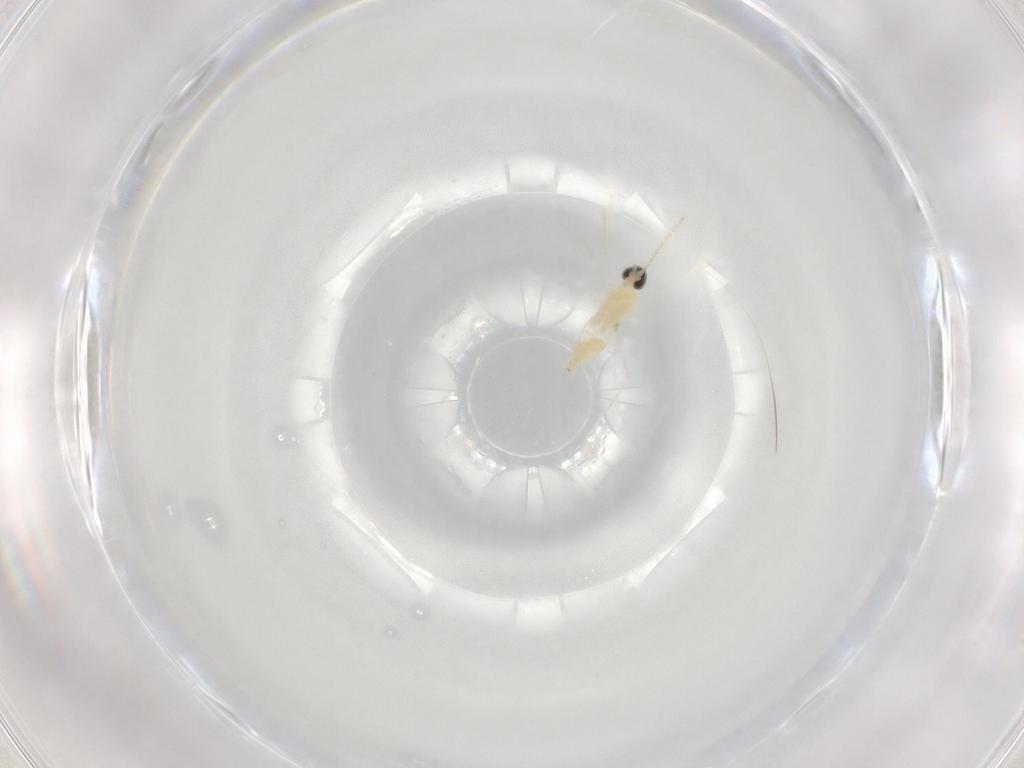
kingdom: Animalia
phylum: Arthropoda
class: Insecta
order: Diptera
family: Cecidomyiidae
